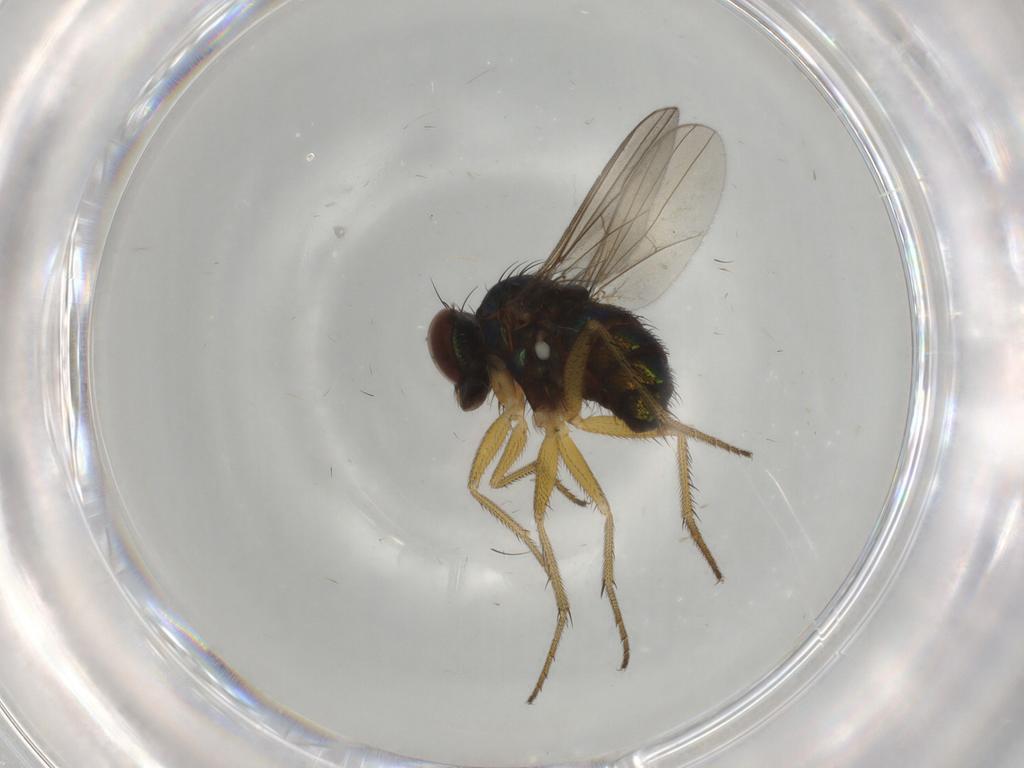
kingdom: Animalia
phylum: Arthropoda
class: Insecta
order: Diptera
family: Dolichopodidae
